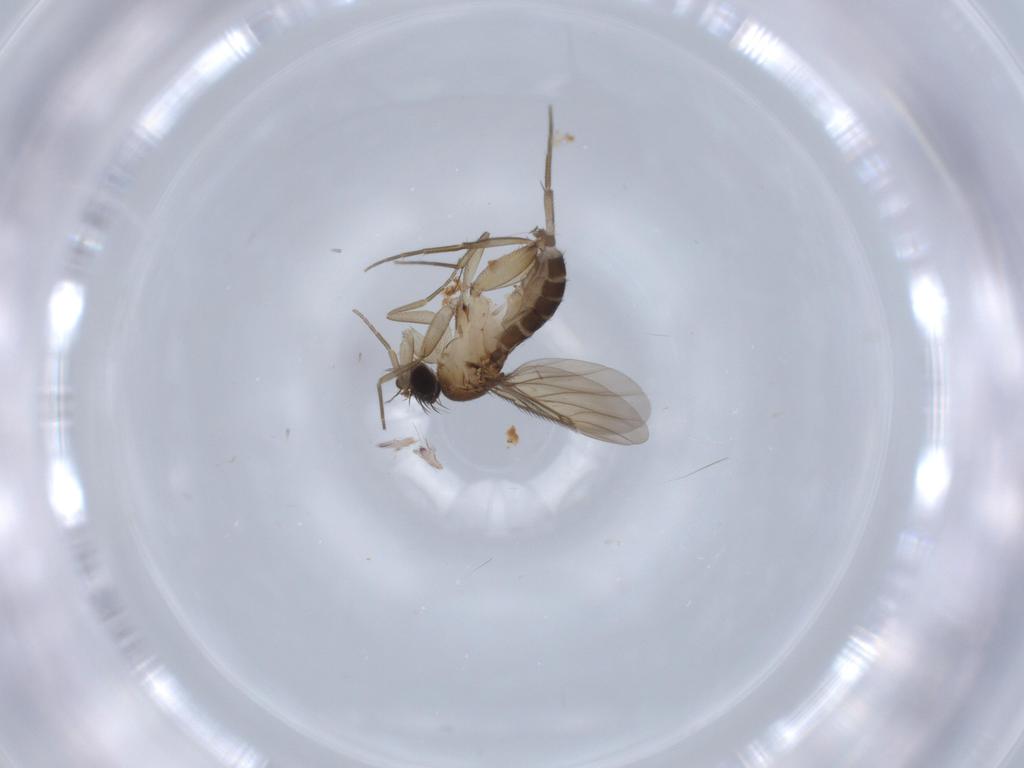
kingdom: Animalia
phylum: Arthropoda
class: Insecta
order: Diptera
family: Phoridae
